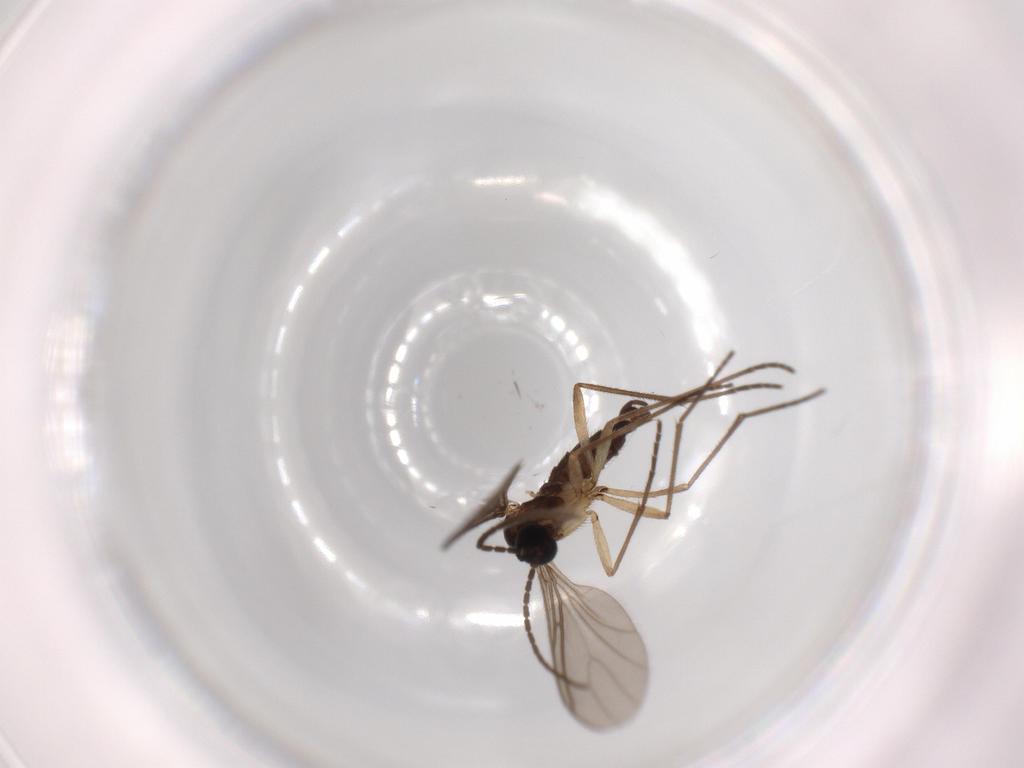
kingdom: Animalia
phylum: Arthropoda
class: Insecta
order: Diptera
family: Sciaridae
